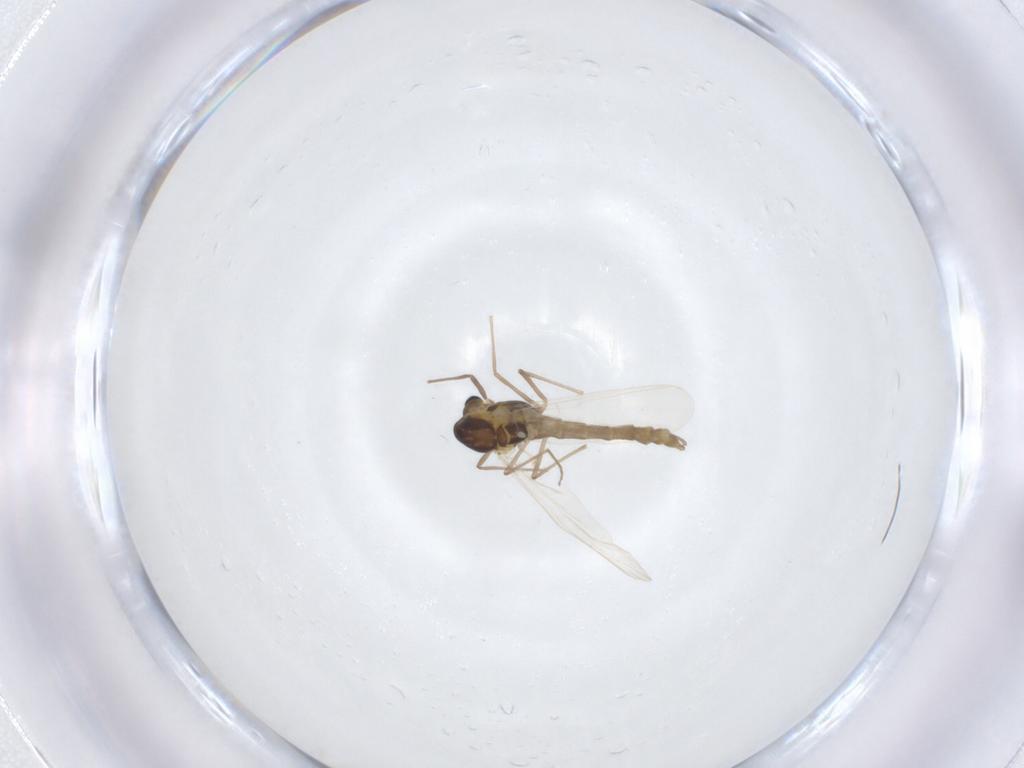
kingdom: Animalia
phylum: Arthropoda
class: Insecta
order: Diptera
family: Chironomidae
